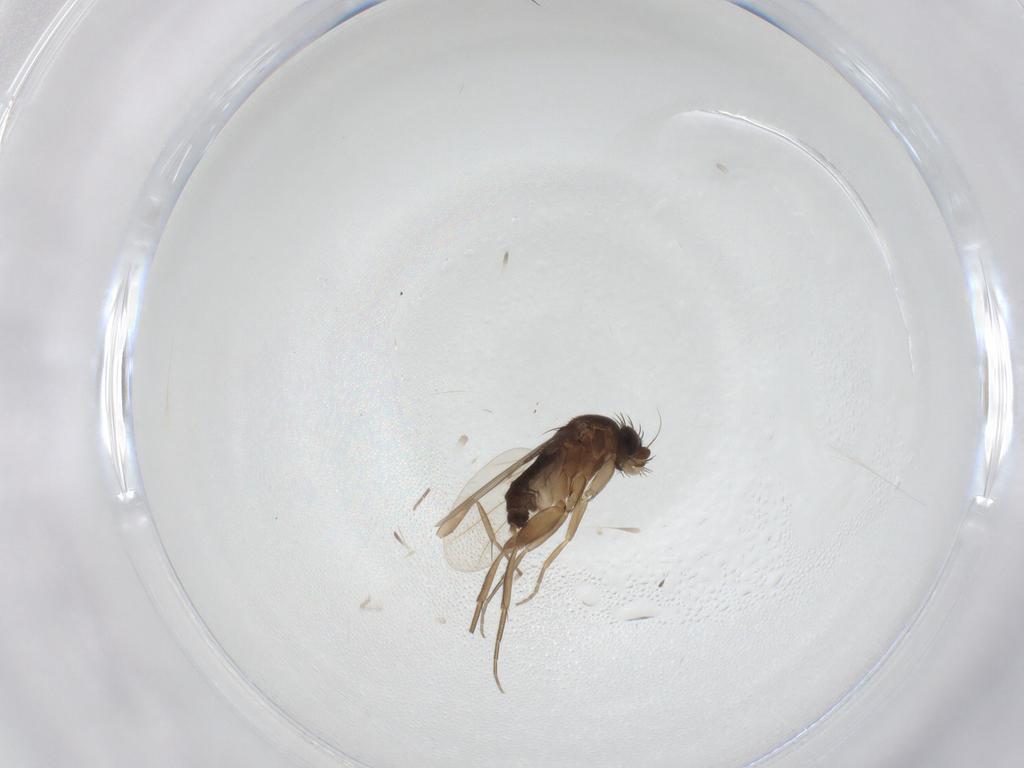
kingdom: Animalia
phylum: Arthropoda
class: Insecta
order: Diptera
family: Phoridae
